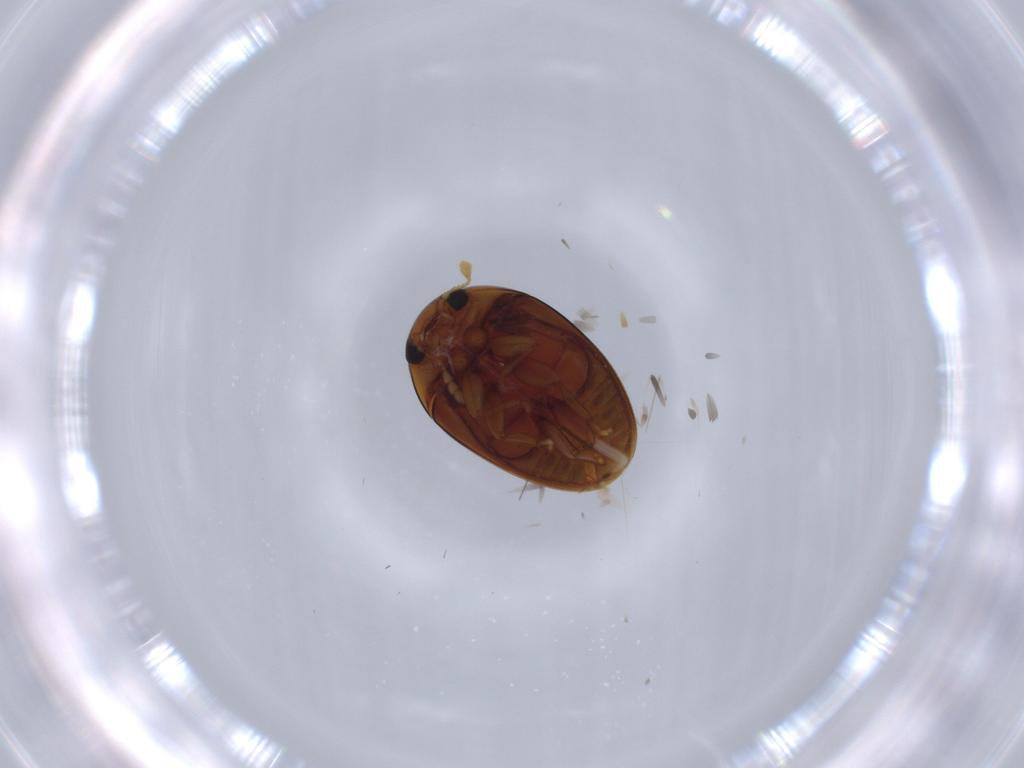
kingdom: Animalia
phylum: Arthropoda
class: Insecta
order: Coleoptera
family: Phalacridae
